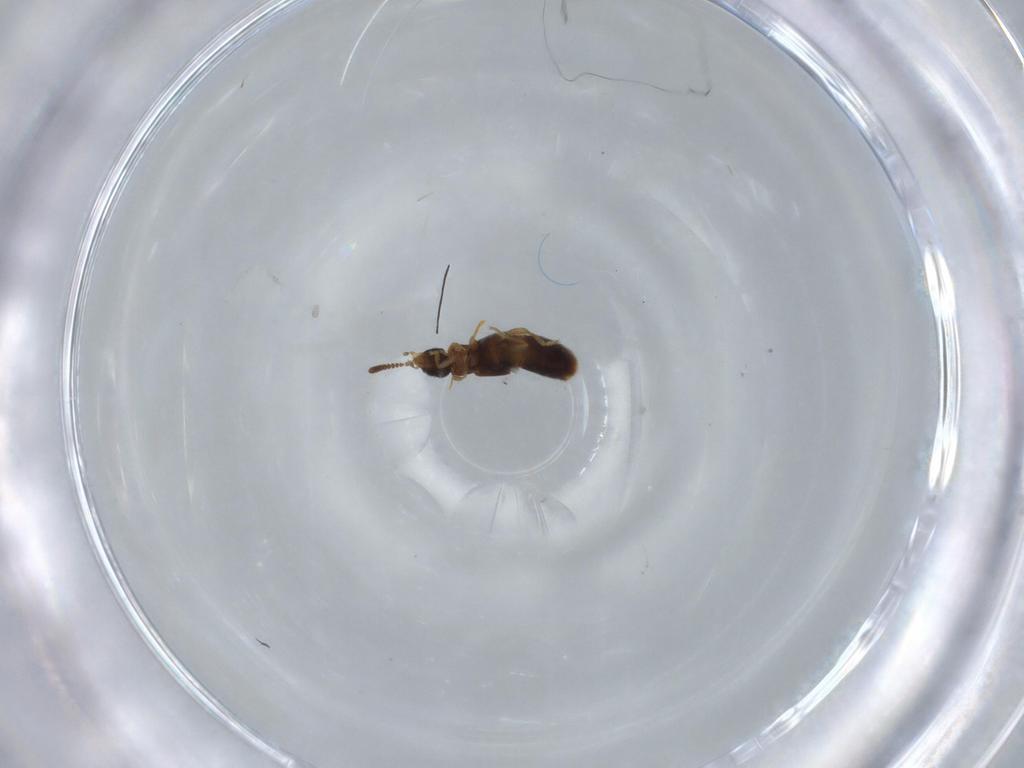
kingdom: Animalia
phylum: Arthropoda
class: Insecta
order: Coleoptera
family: Staphylinidae
